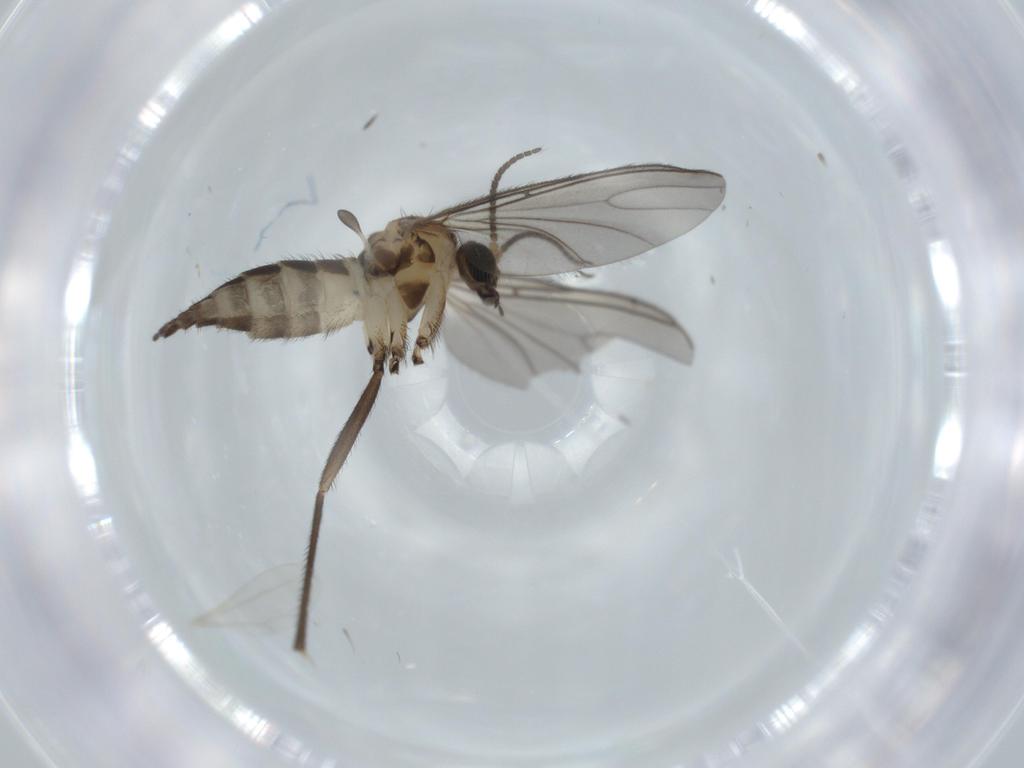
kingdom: Animalia
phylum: Arthropoda
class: Insecta
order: Diptera
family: Sciaridae
